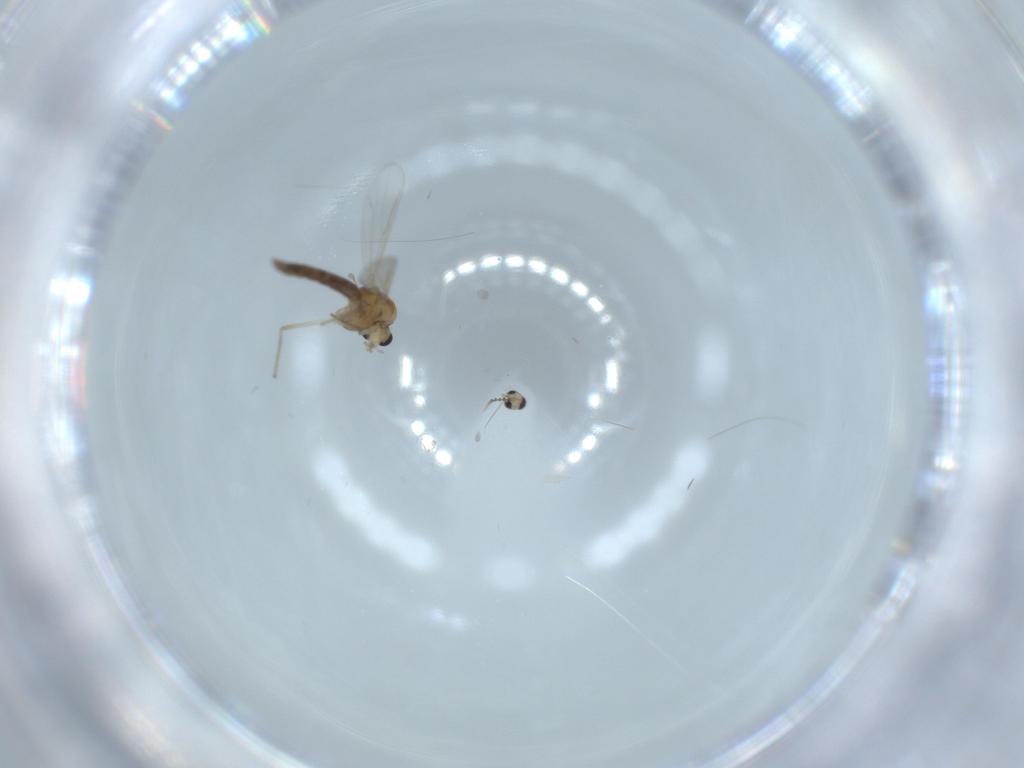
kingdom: Animalia
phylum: Arthropoda
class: Insecta
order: Diptera
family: Chironomidae
